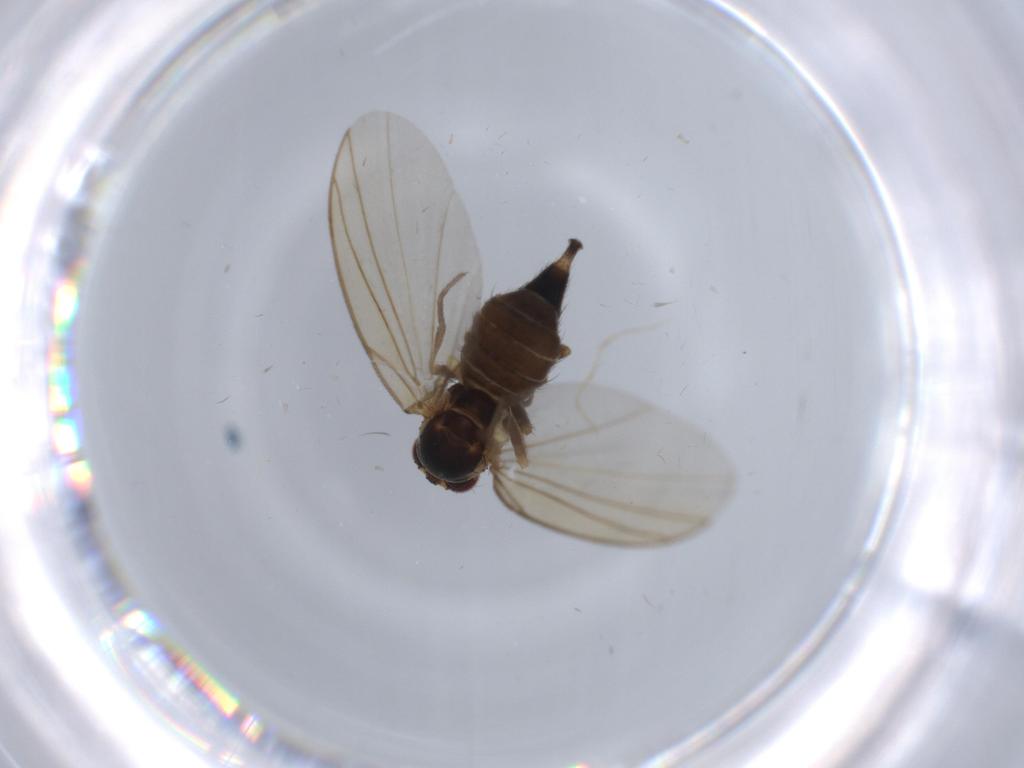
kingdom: Animalia
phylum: Arthropoda
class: Insecta
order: Diptera
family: Agromyzidae
